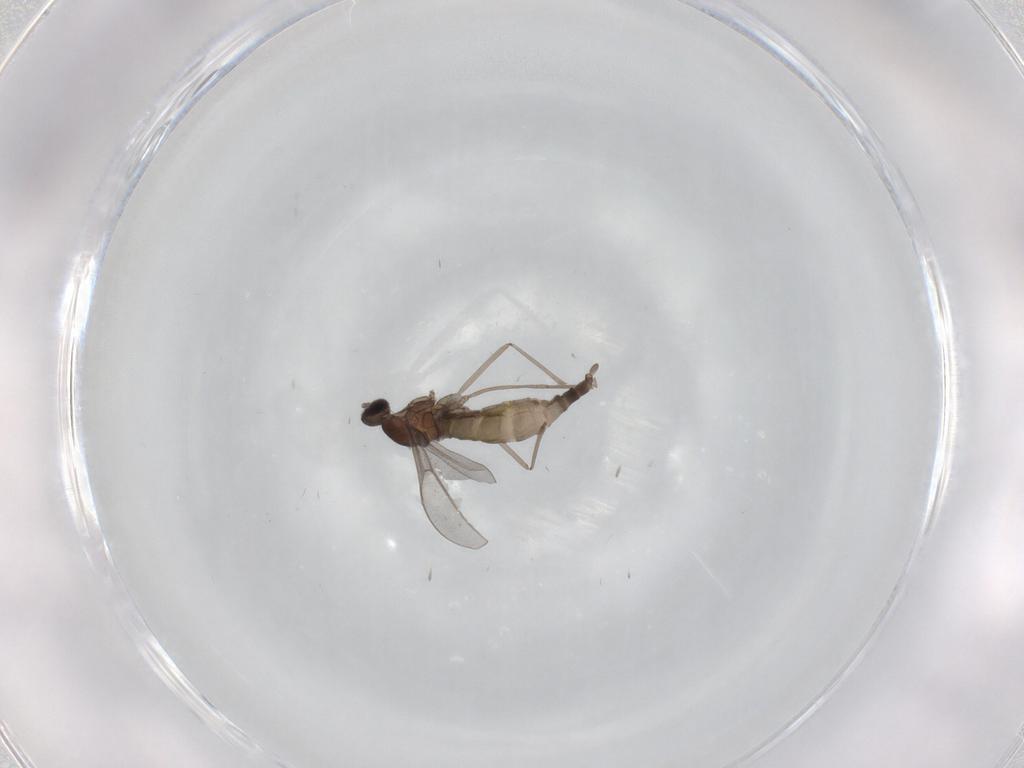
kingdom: Animalia
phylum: Arthropoda
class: Insecta
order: Diptera
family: Cecidomyiidae
